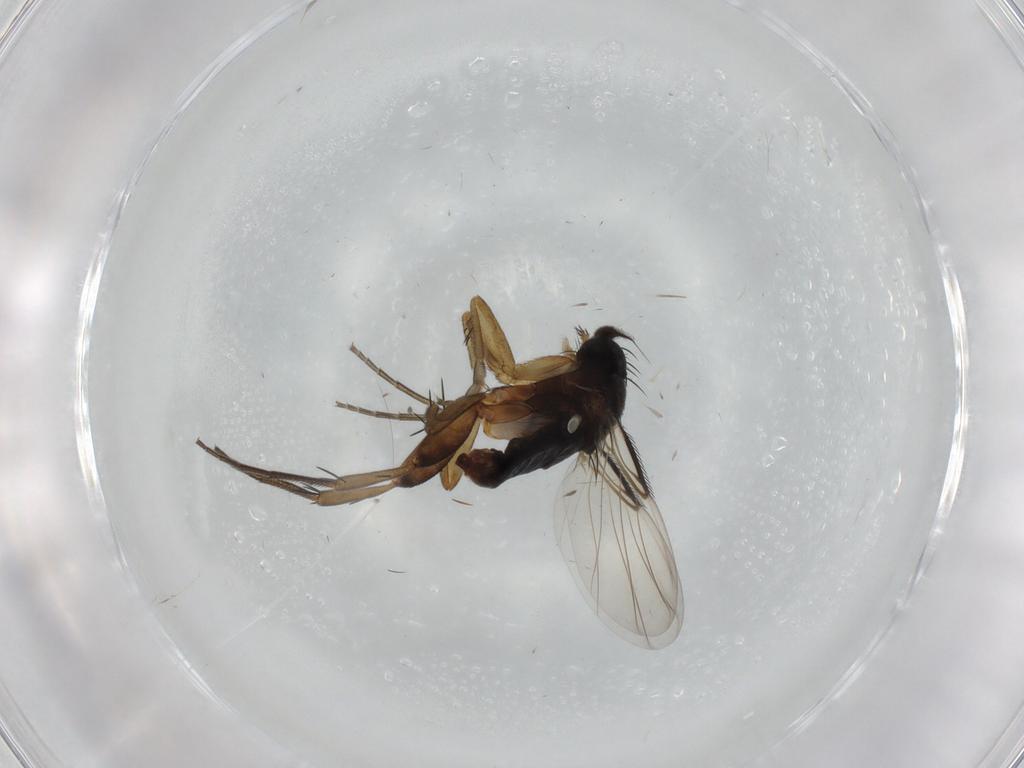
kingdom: Animalia
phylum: Arthropoda
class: Insecta
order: Diptera
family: Phoridae
